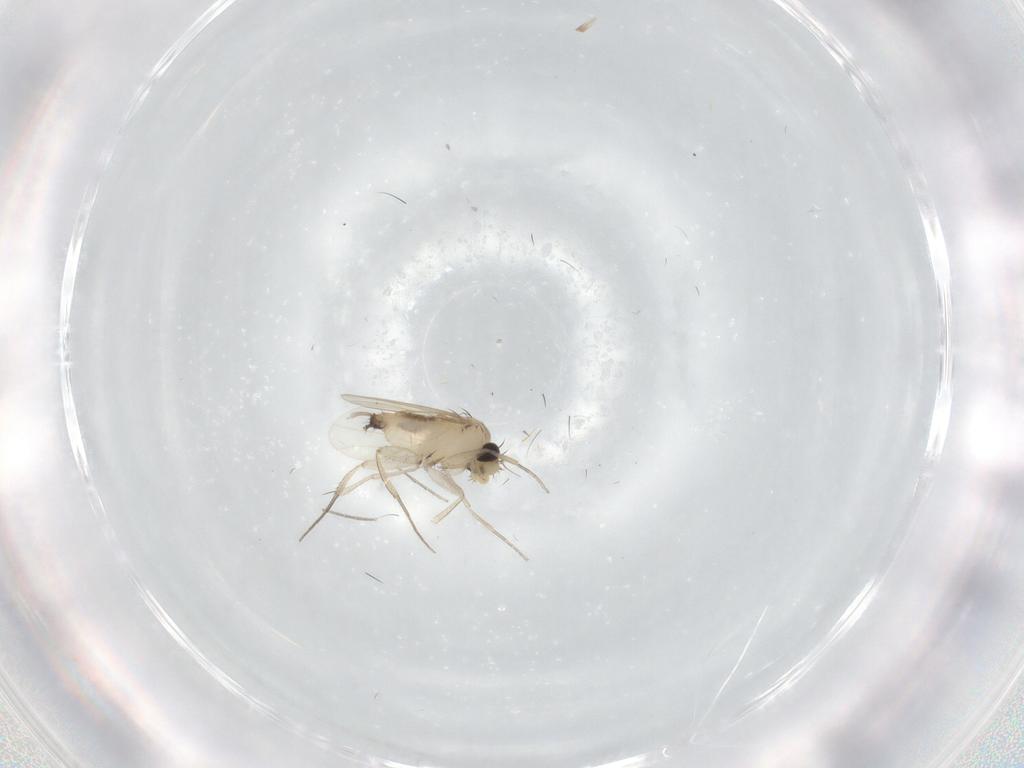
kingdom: Animalia
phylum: Arthropoda
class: Insecta
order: Diptera
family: Phoridae
